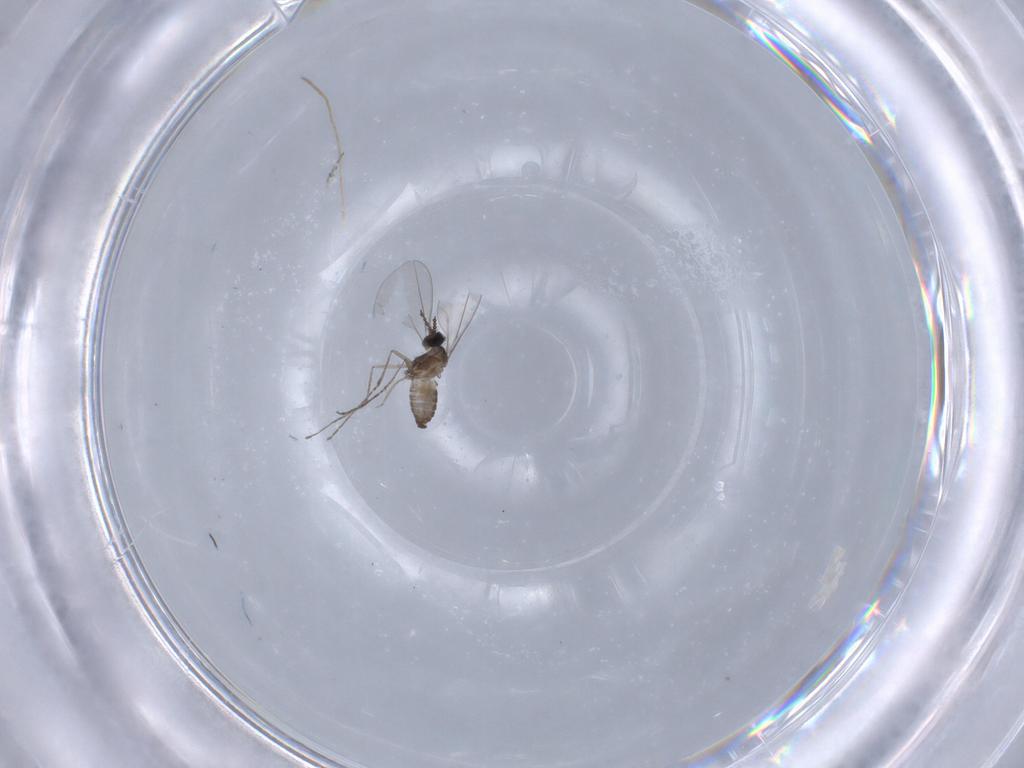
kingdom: Animalia
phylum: Arthropoda
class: Insecta
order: Diptera
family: Cecidomyiidae
